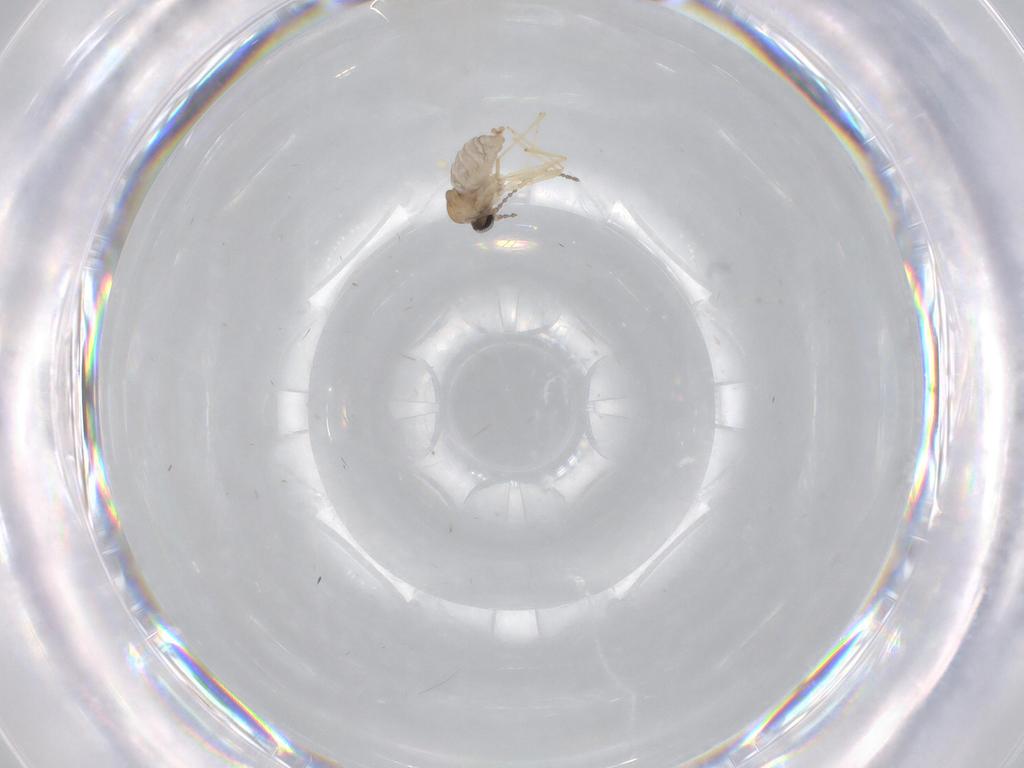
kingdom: Animalia
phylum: Arthropoda
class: Insecta
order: Diptera
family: Cecidomyiidae
